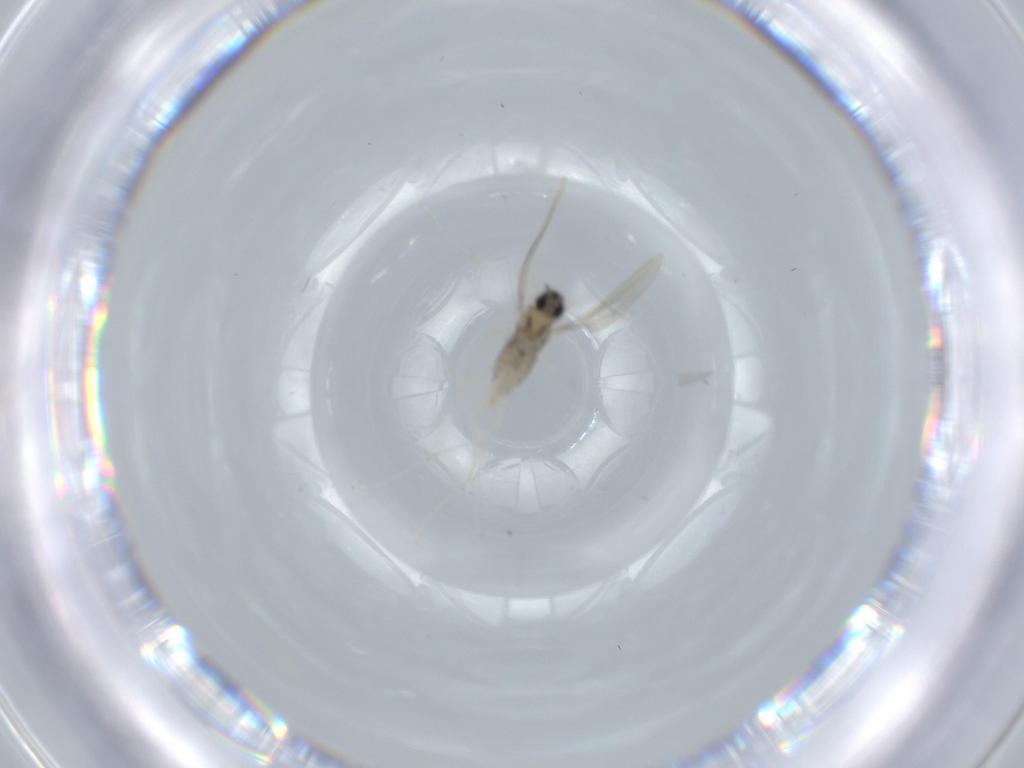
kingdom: Animalia
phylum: Arthropoda
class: Insecta
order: Diptera
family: Cecidomyiidae
